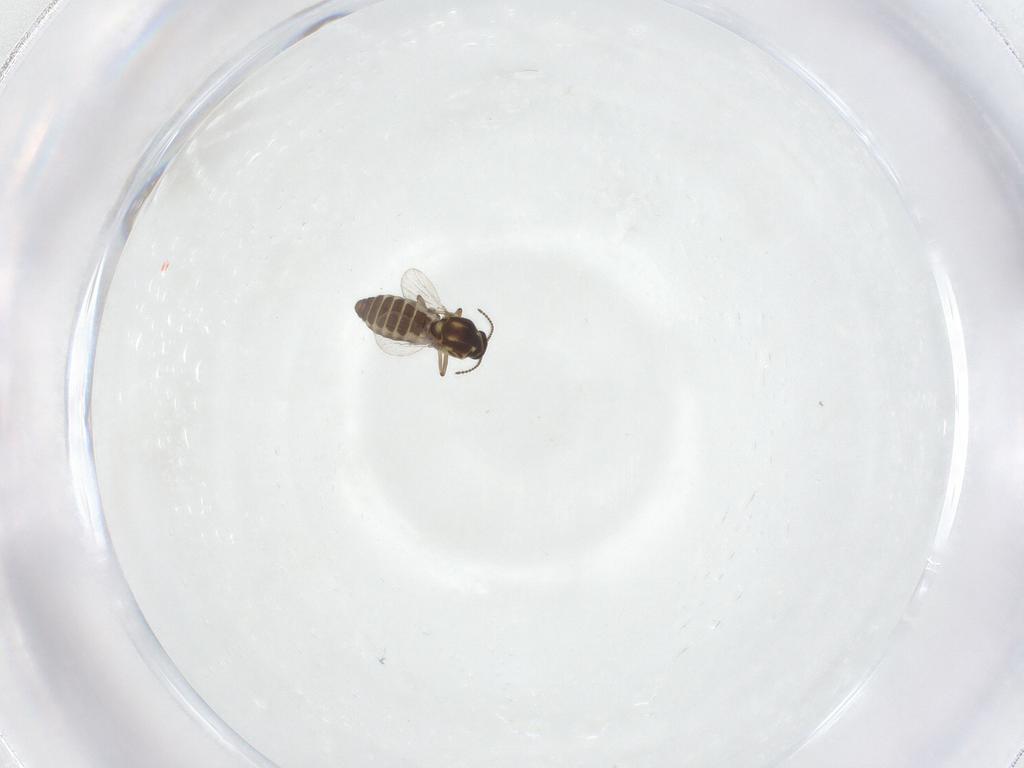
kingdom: Animalia
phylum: Arthropoda
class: Insecta
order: Diptera
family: Ceratopogonidae
